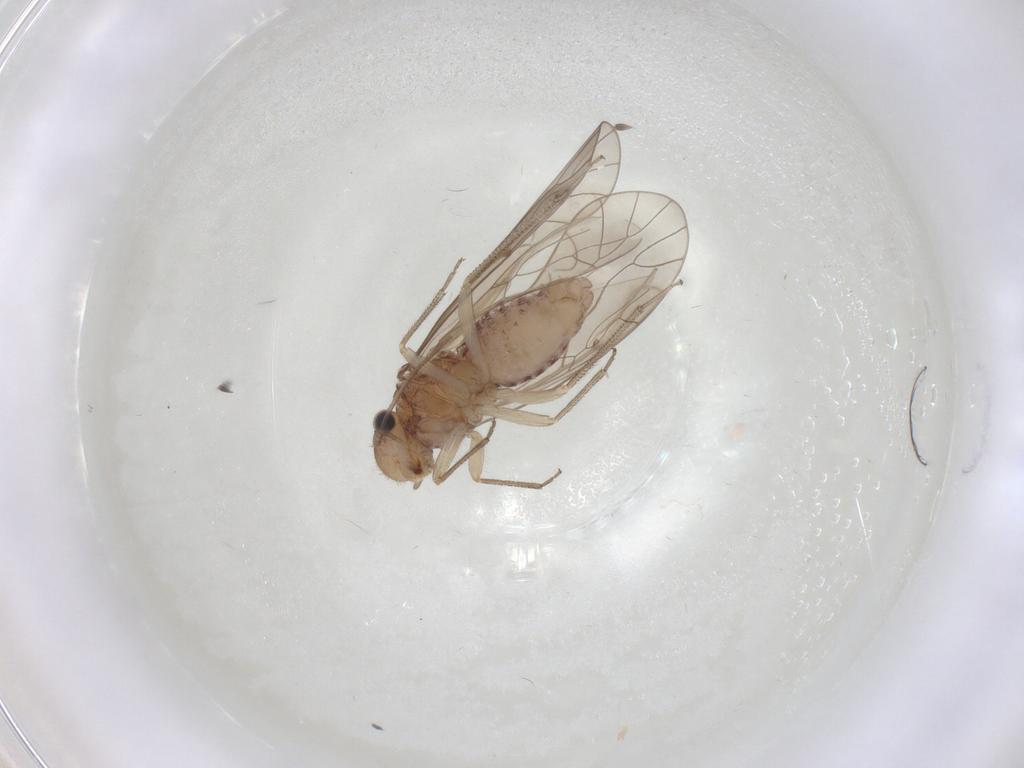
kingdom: Animalia
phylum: Arthropoda
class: Insecta
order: Psocodea
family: Caeciliusidae
